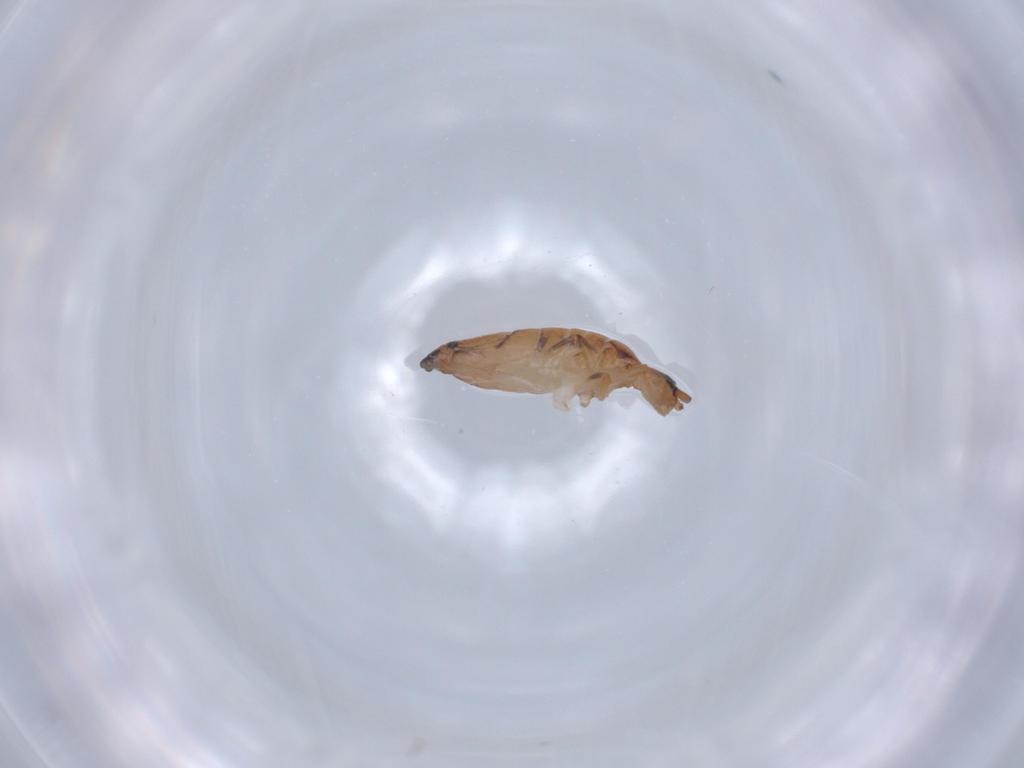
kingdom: Animalia
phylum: Arthropoda
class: Collembola
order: Entomobryomorpha
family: Entomobryidae
